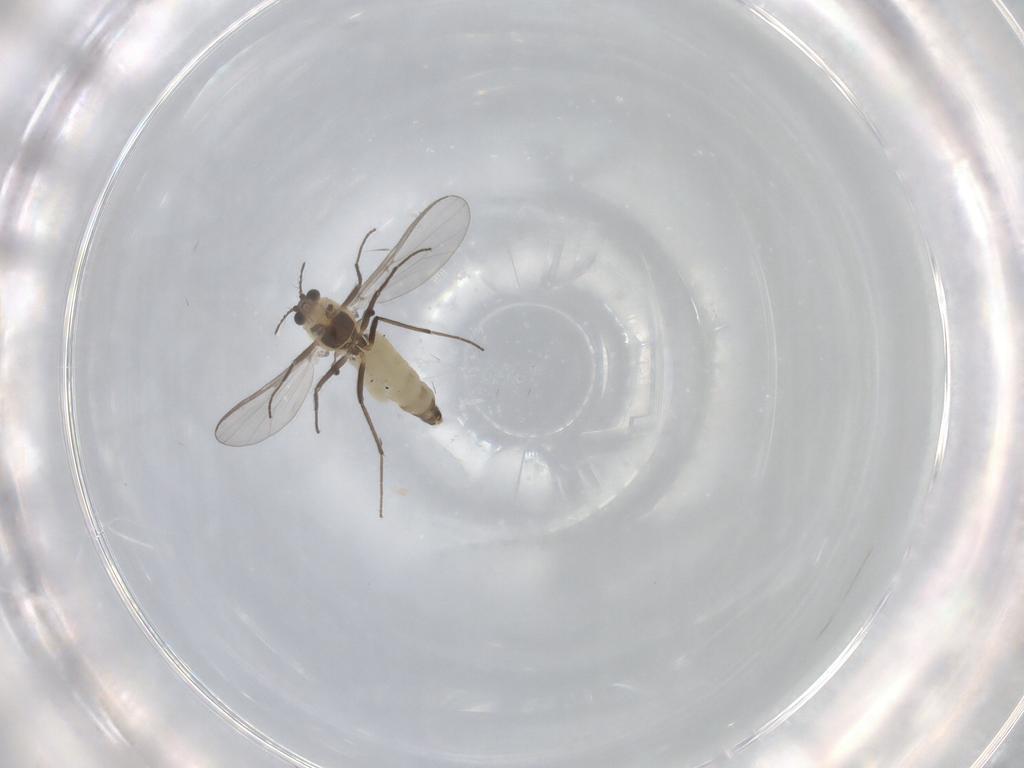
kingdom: Animalia
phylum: Arthropoda
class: Insecta
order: Diptera
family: Chironomidae
